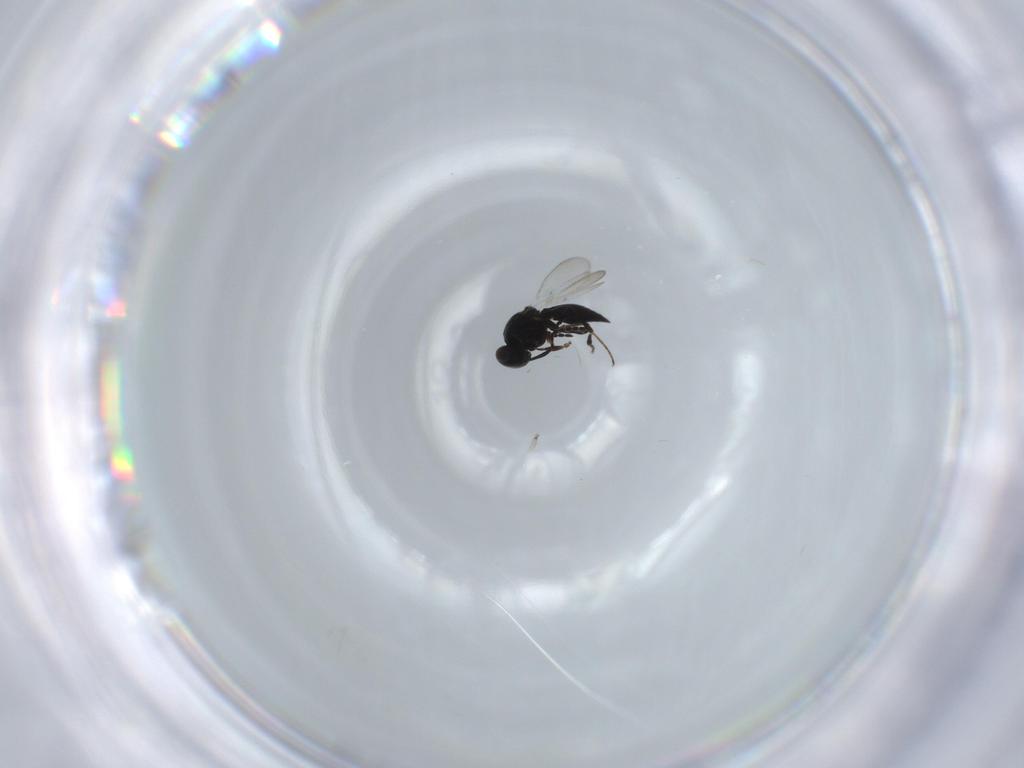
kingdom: Animalia
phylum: Arthropoda
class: Insecta
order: Diptera
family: Mythicomyiidae
